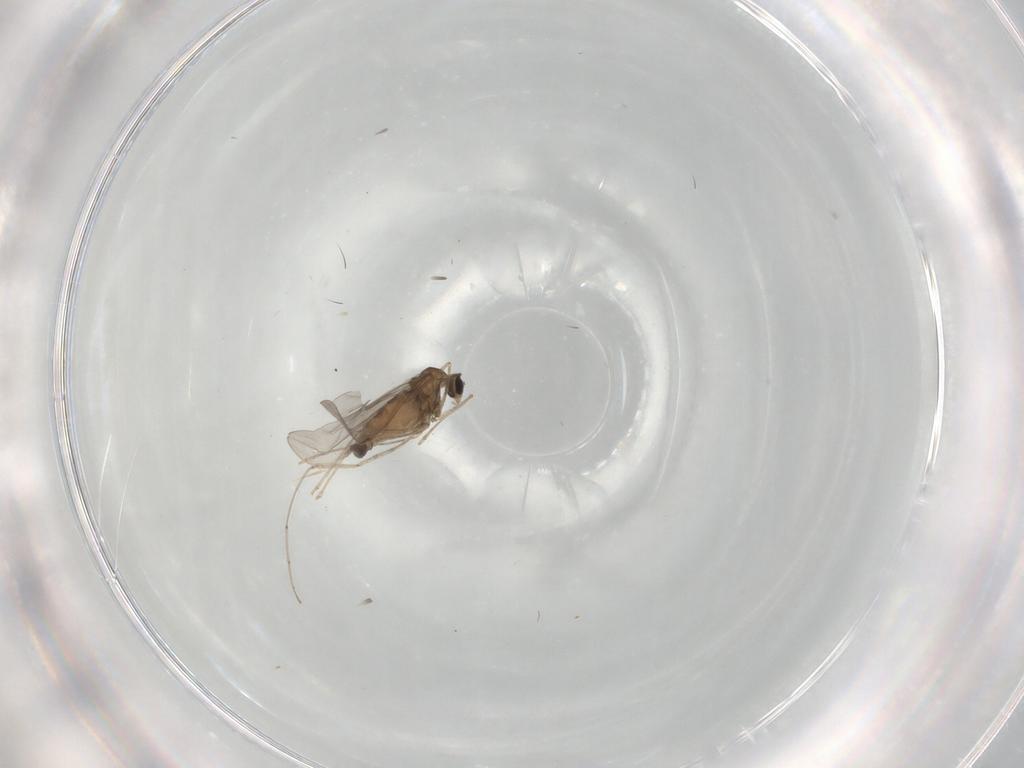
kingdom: Animalia
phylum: Arthropoda
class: Insecta
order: Diptera
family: Cecidomyiidae
